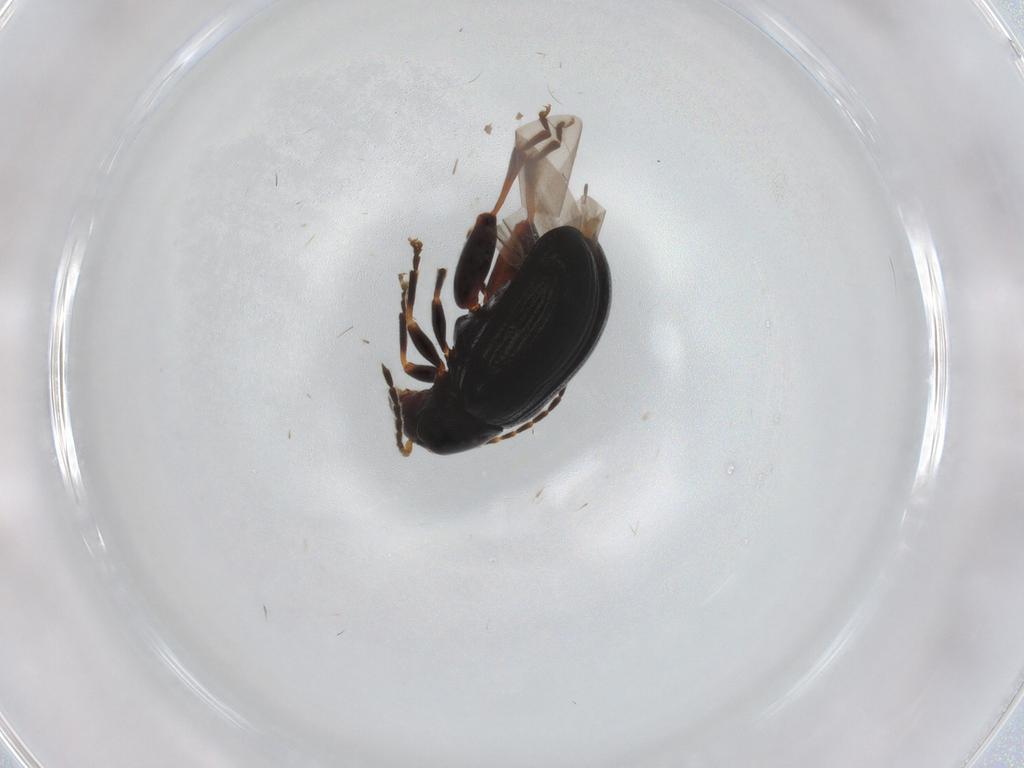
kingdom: Animalia
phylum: Arthropoda
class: Insecta
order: Coleoptera
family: Chrysomelidae
